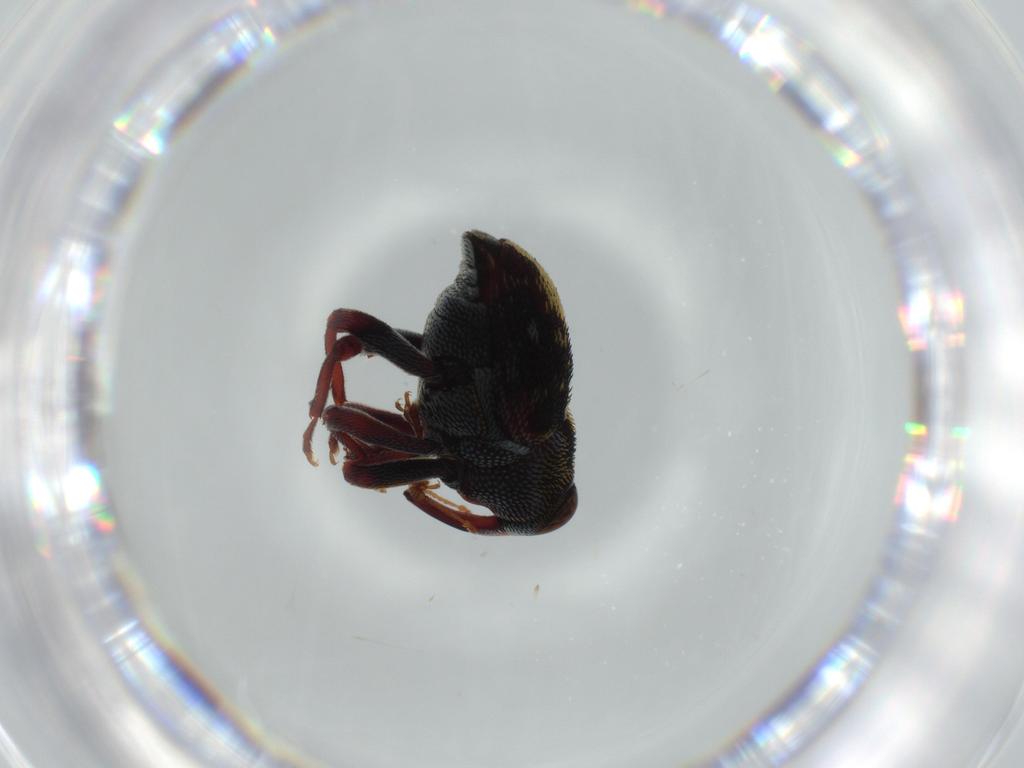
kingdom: Animalia
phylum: Arthropoda
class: Insecta
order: Coleoptera
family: Curculionidae
